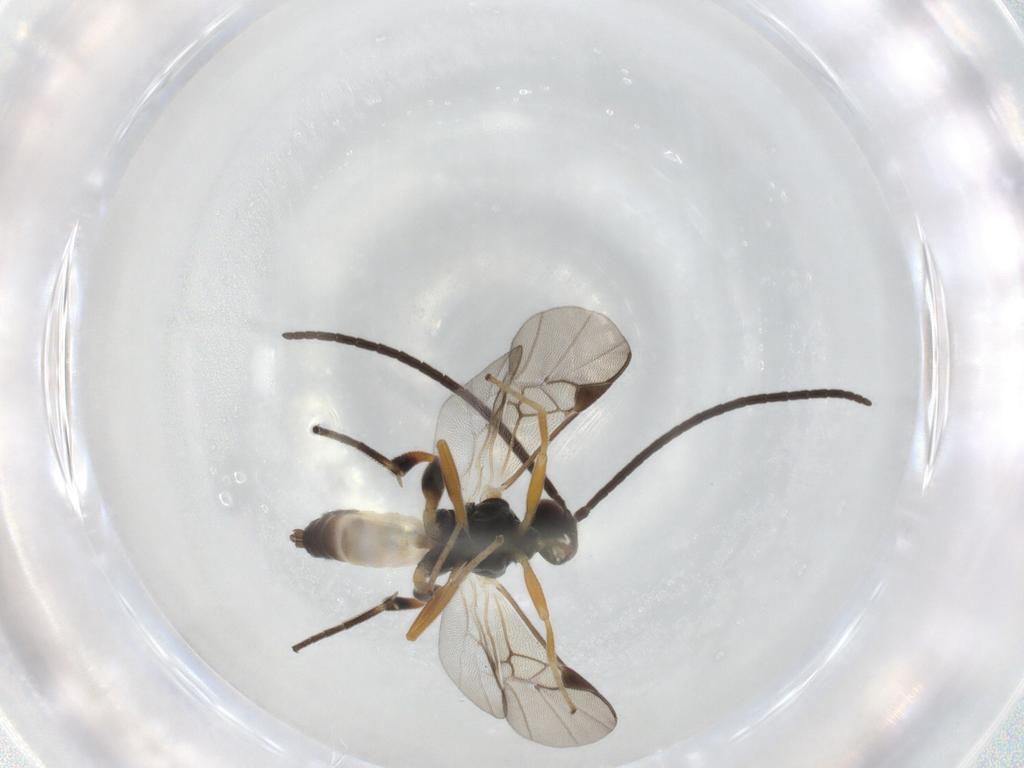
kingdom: Animalia
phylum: Arthropoda
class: Insecta
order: Hymenoptera
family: Braconidae
